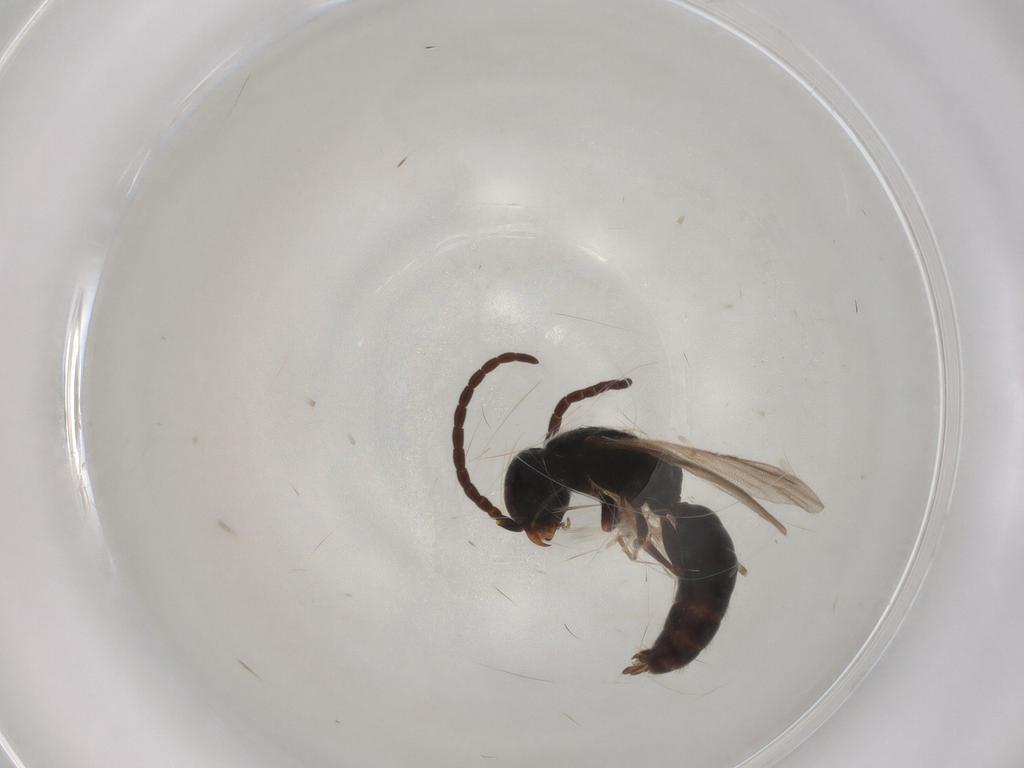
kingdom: Animalia
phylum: Arthropoda
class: Insecta
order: Hymenoptera
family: Bethylidae
